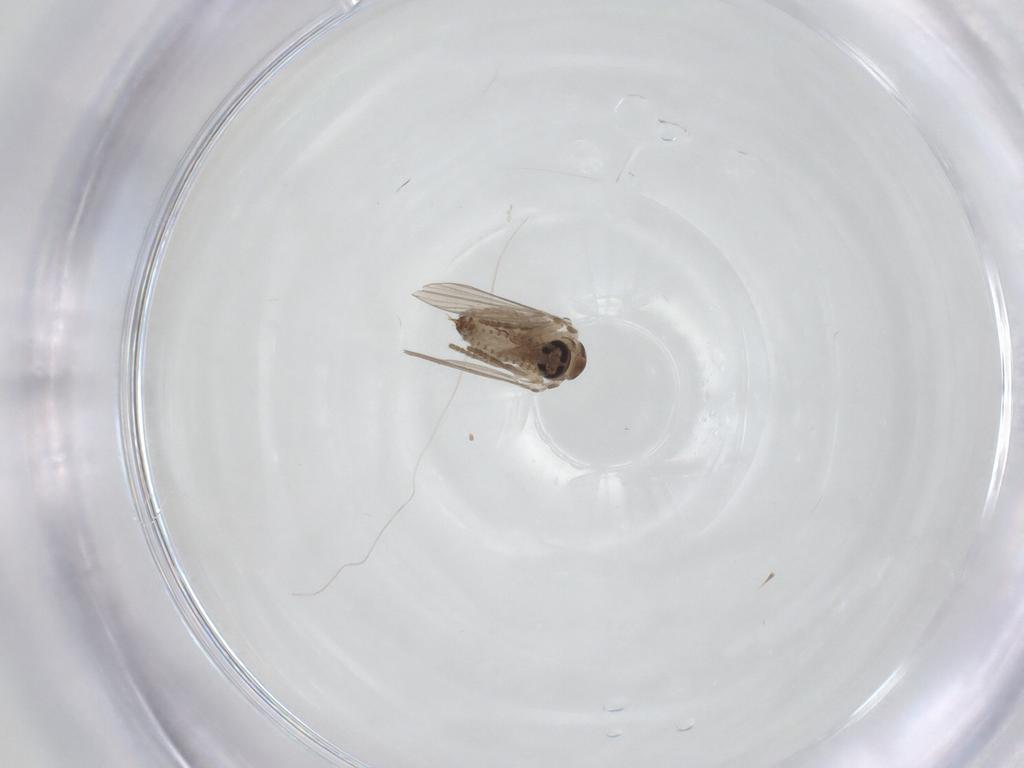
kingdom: Animalia
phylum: Arthropoda
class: Insecta
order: Diptera
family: Psychodidae
